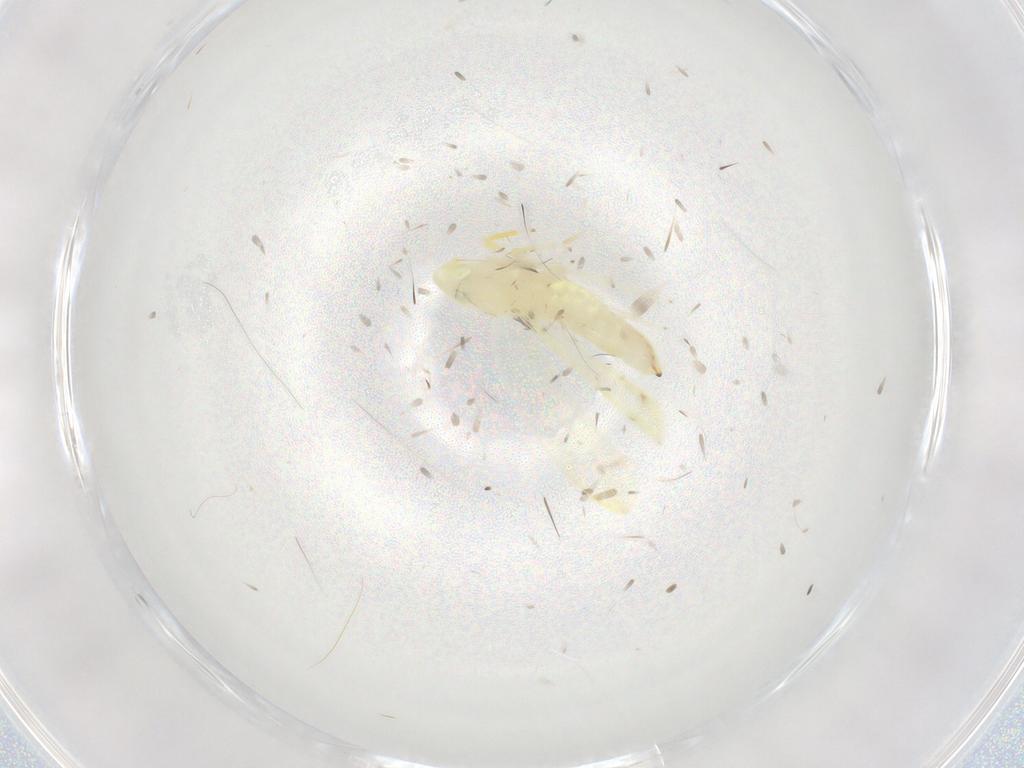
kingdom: Animalia
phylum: Arthropoda
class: Insecta
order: Hemiptera
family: Cicadellidae
